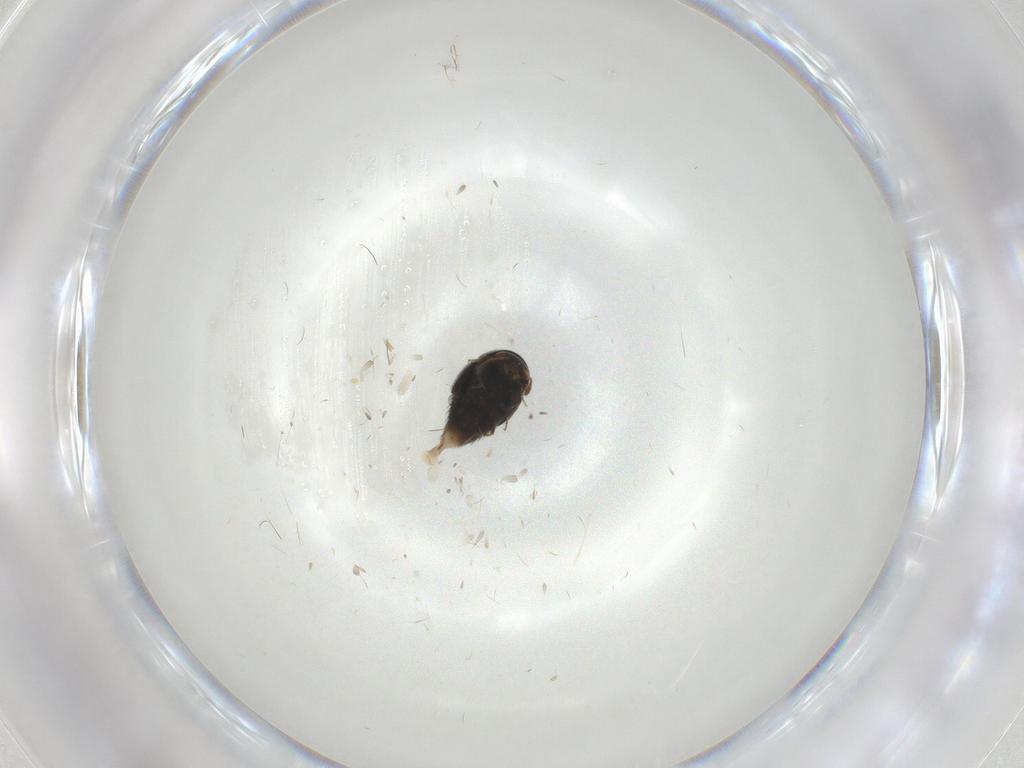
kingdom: Animalia
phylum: Arthropoda
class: Insecta
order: Coleoptera
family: Staphylinidae
